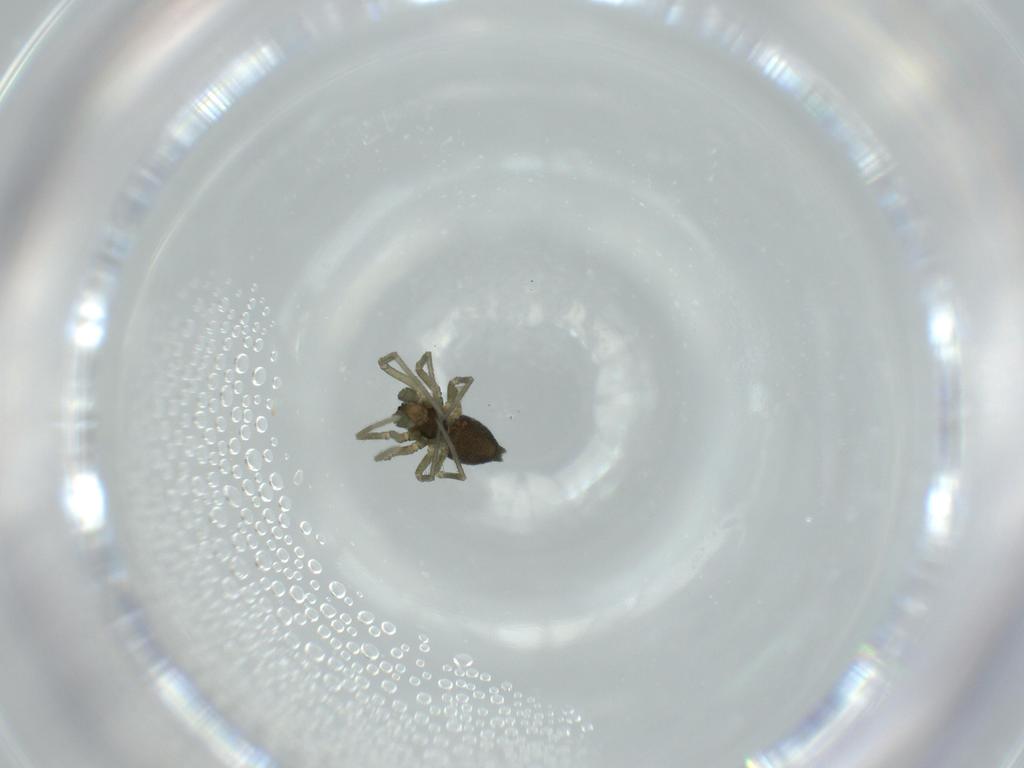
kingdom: Animalia
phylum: Arthropoda
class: Arachnida
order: Araneae
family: Linyphiidae
